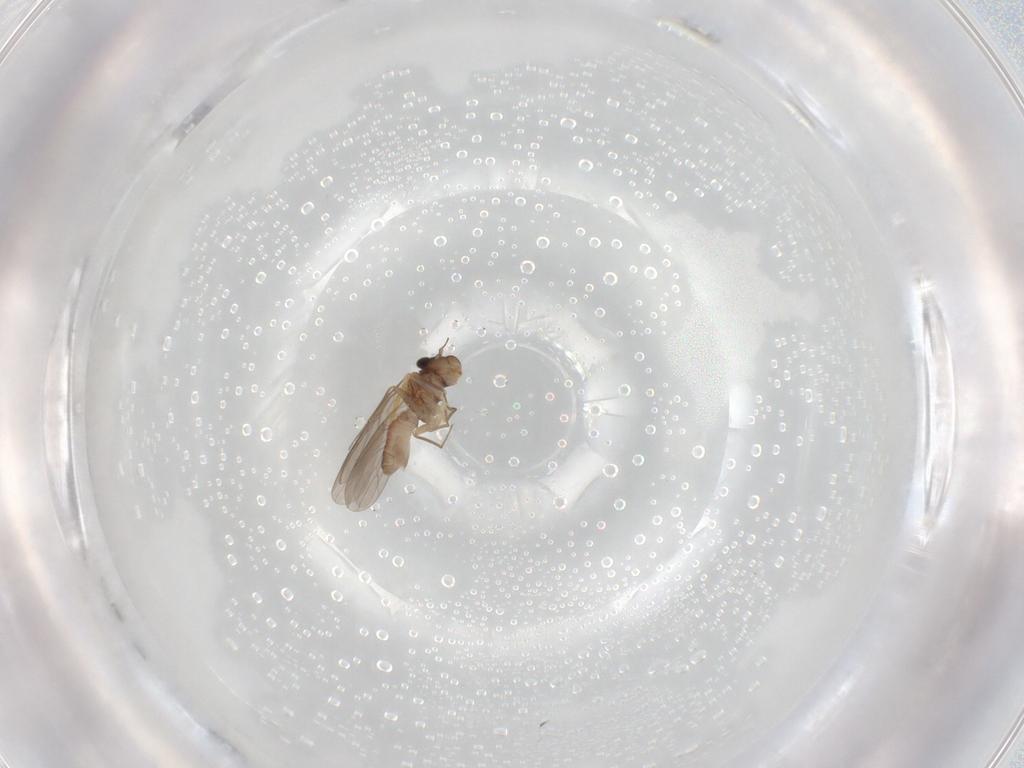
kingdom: Animalia
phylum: Arthropoda
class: Insecta
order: Psocodea
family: Lepidopsocidae
